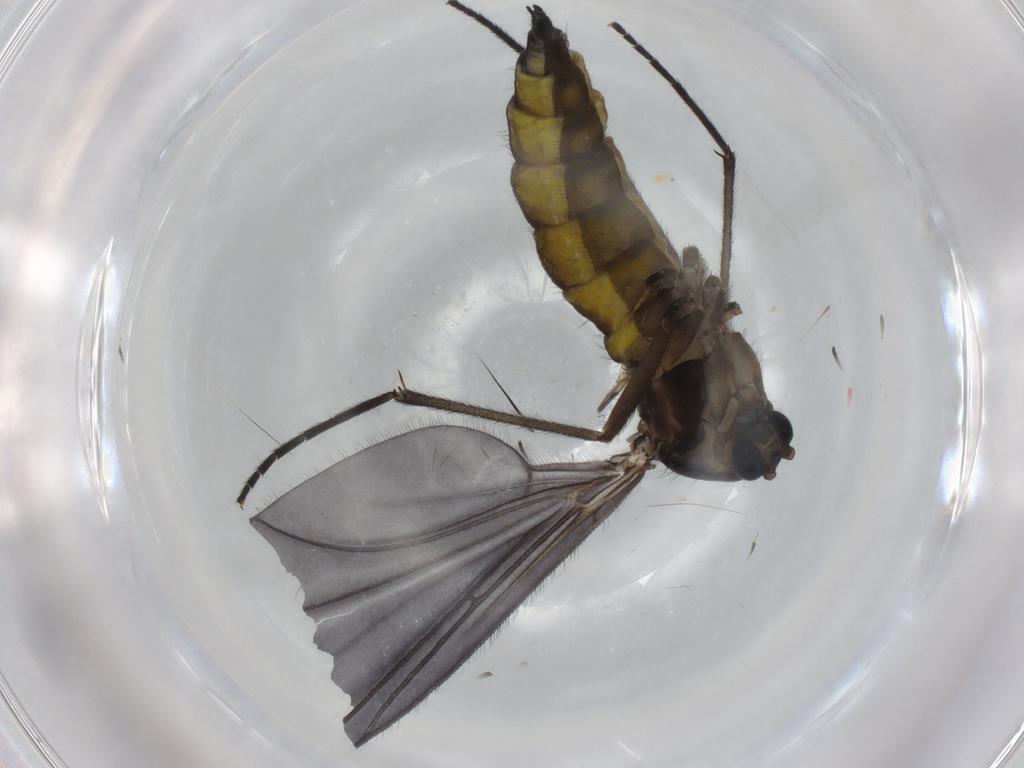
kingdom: Animalia
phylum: Arthropoda
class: Insecta
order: Diptera
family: Sciaridae
